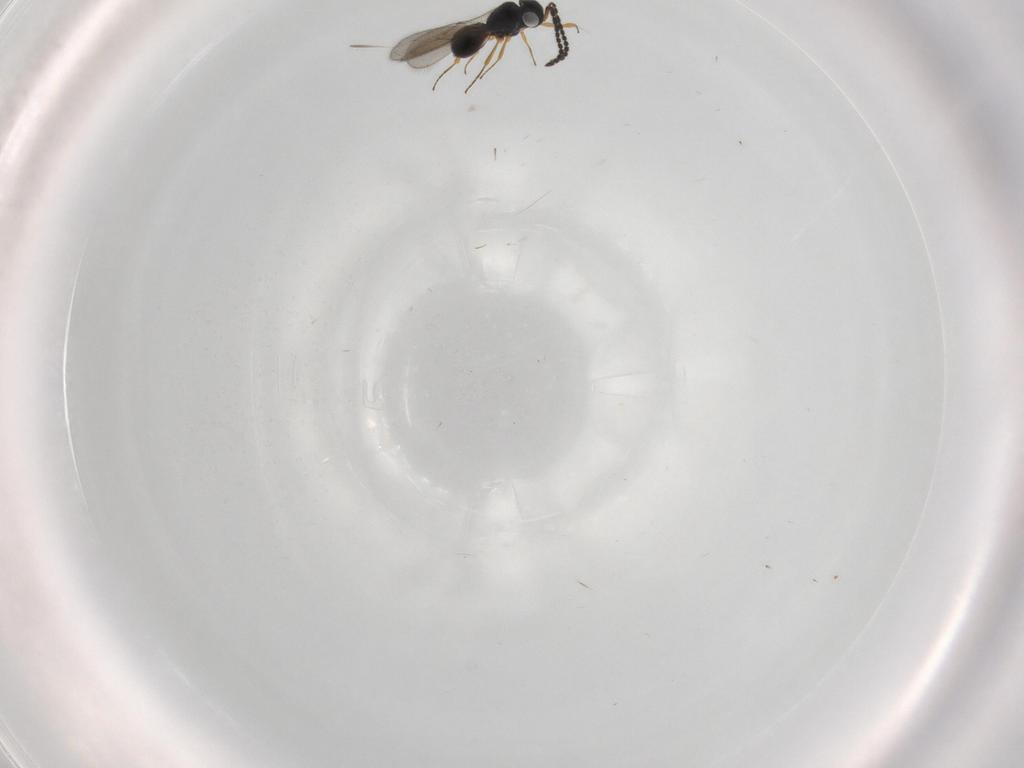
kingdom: Animalia
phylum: Arthropoda
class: Insecta
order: Hymenoptera
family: Scelionidae
